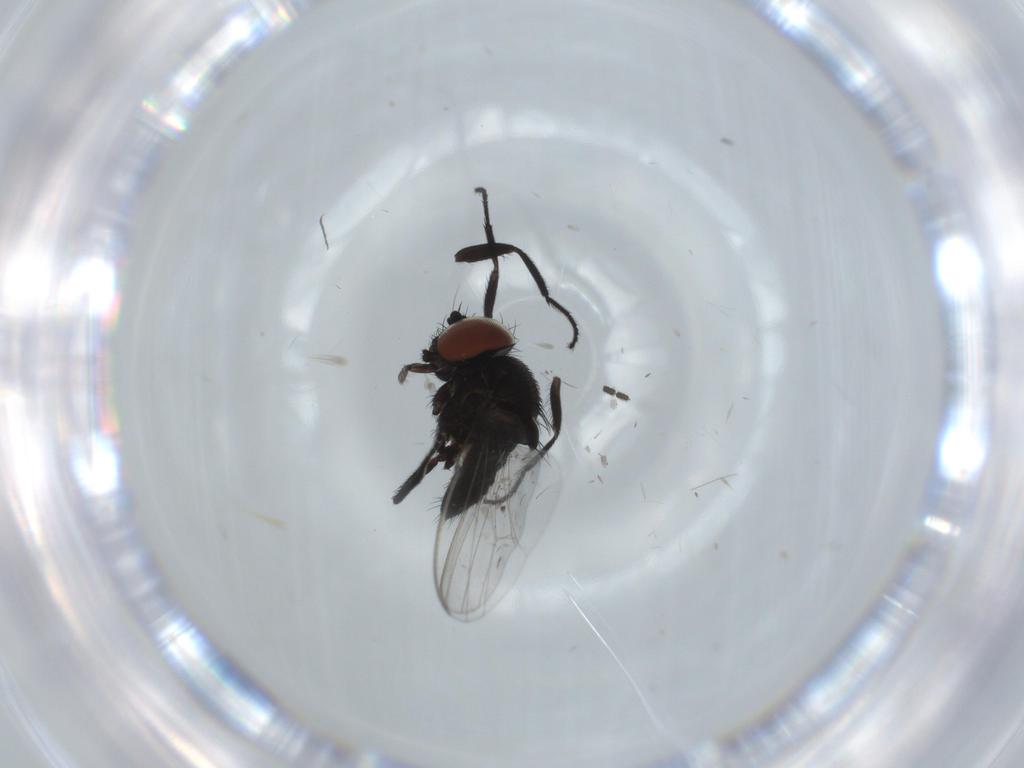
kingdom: Animalia
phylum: Arthropoda
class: Insecta
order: Diptera
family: Milichiidae
